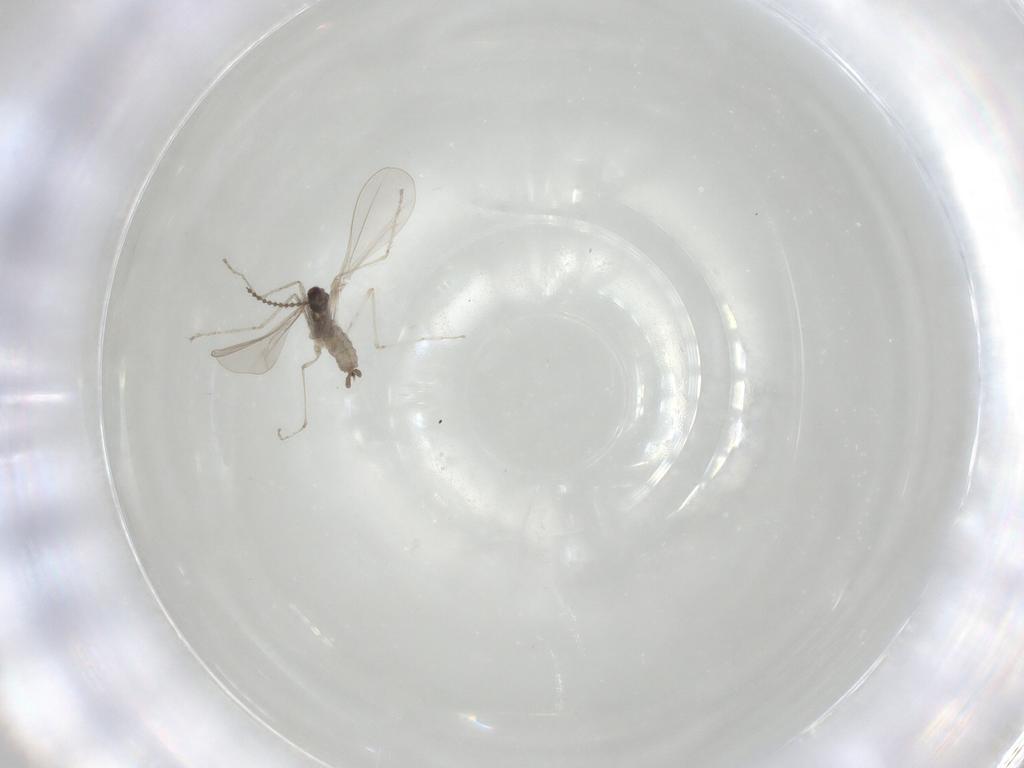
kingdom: Animalia
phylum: Arthropoda
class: Insecta
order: Diptera
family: Cecidomyiidae
